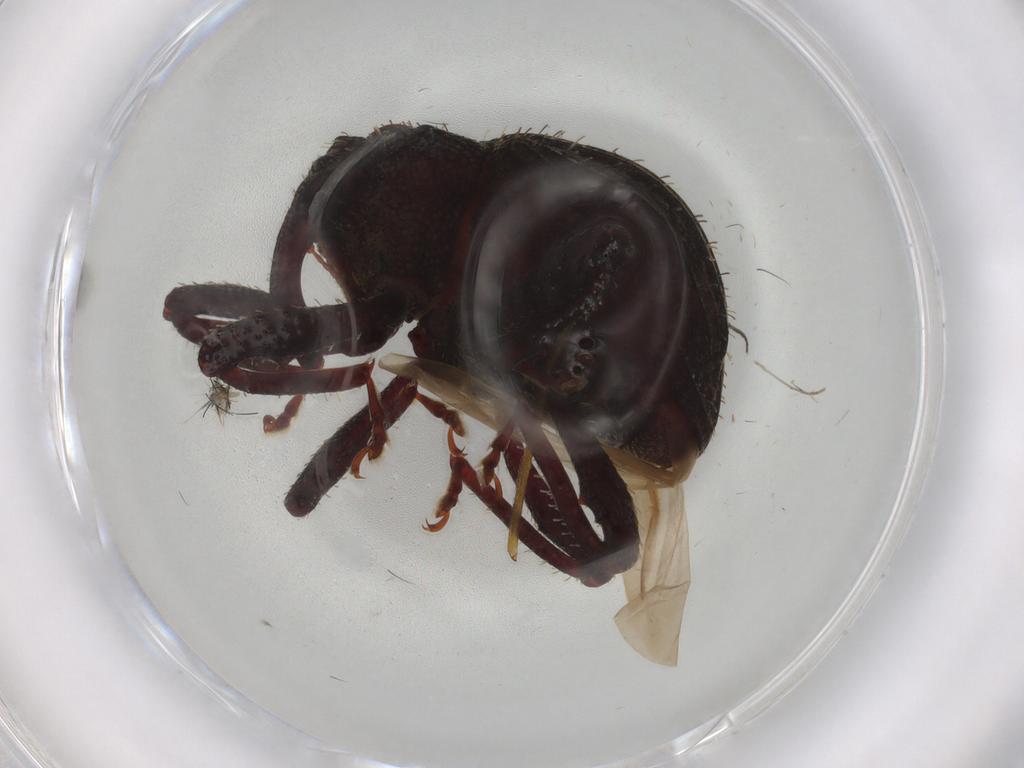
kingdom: Animalia
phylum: Arthropoda
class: Insecta
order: Coleoptera
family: Curculionidae
